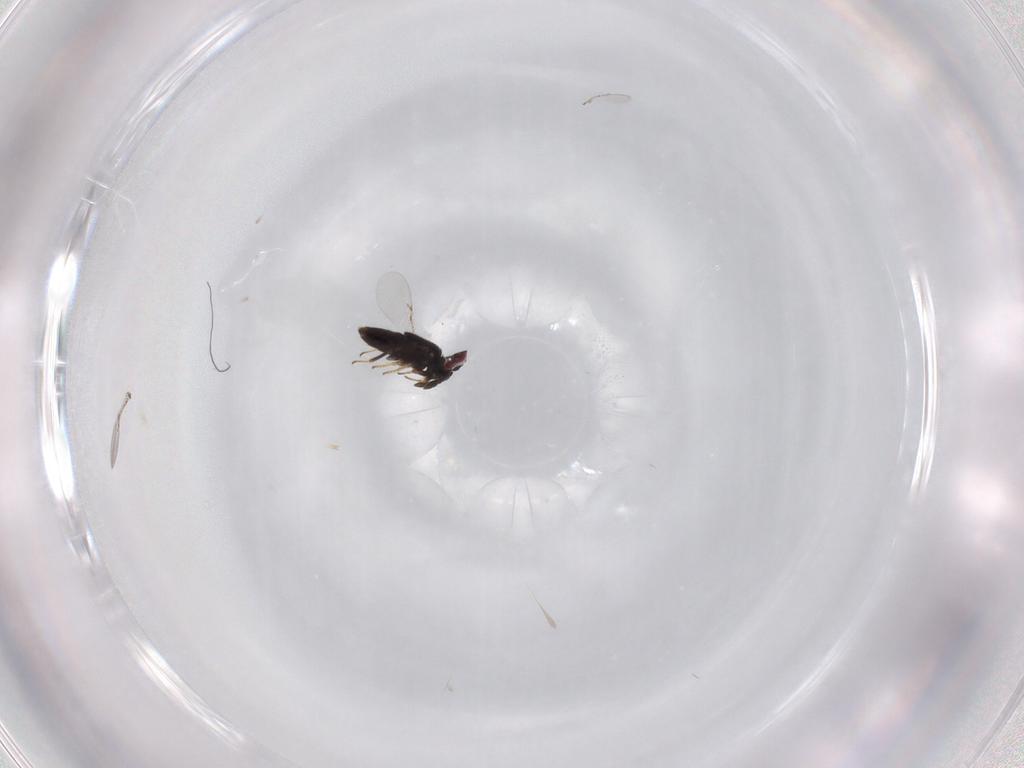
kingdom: Animalia
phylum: Arthropoda
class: Insecta
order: Hymenoptera
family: Encyrtidae
